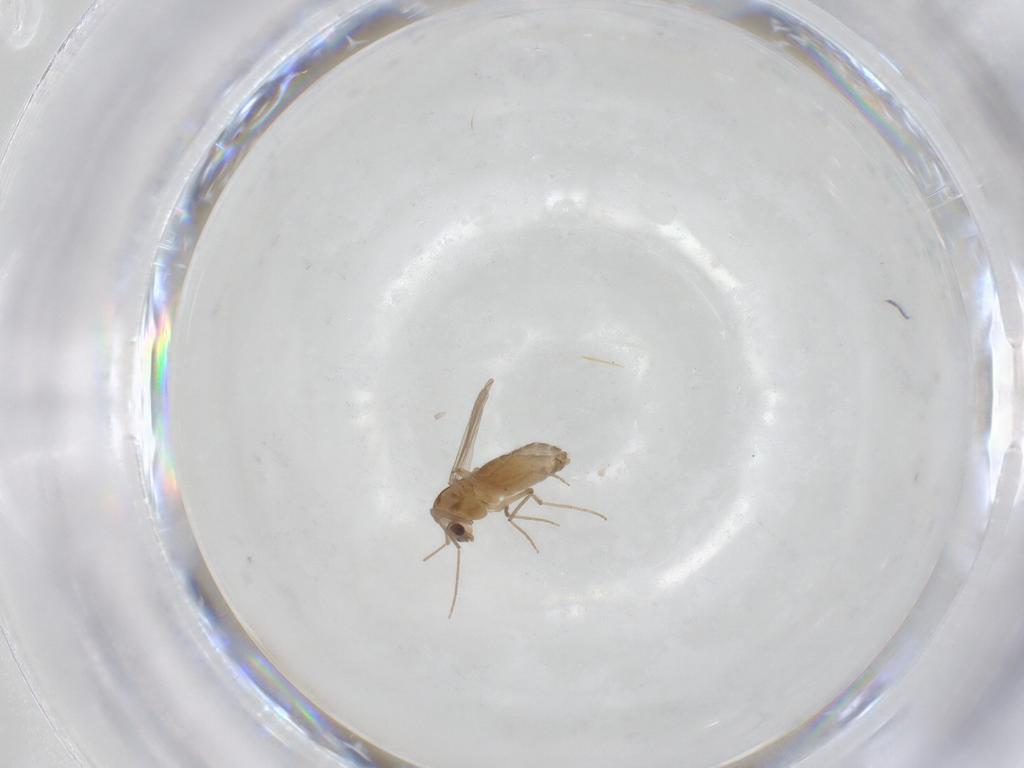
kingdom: Animalia
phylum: Arthropoda
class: Insecta
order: Diptera
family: Chironomidae
